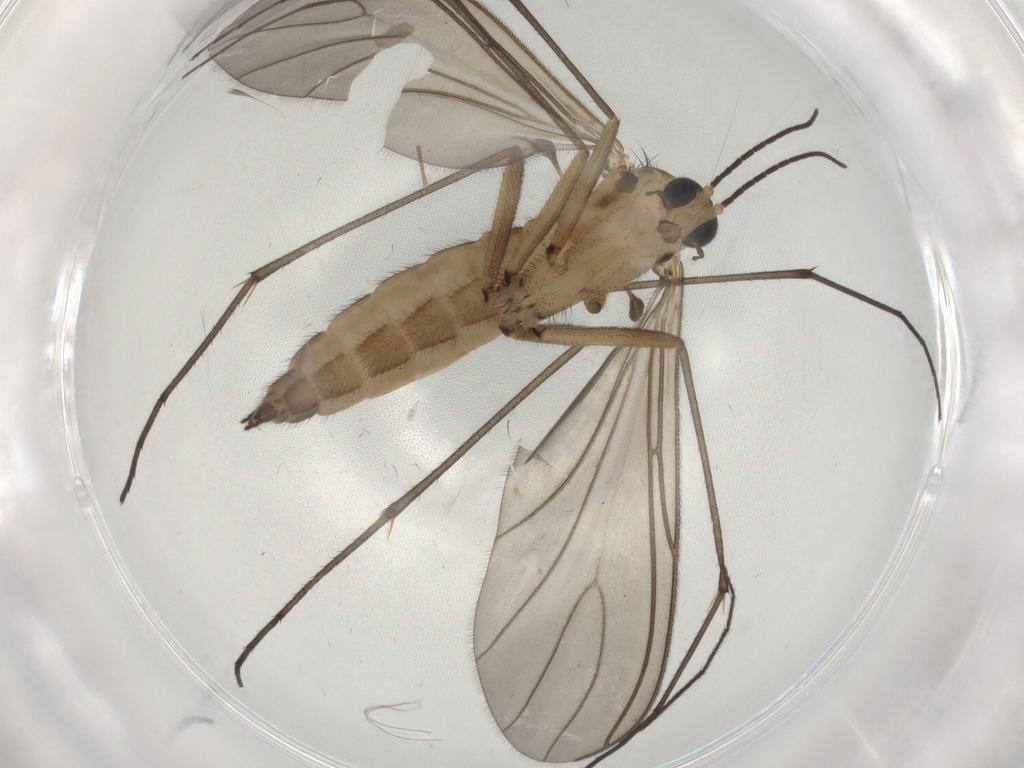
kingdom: Animalia
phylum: Arthropoda
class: Insecta
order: Diptera
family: Sciaridae
